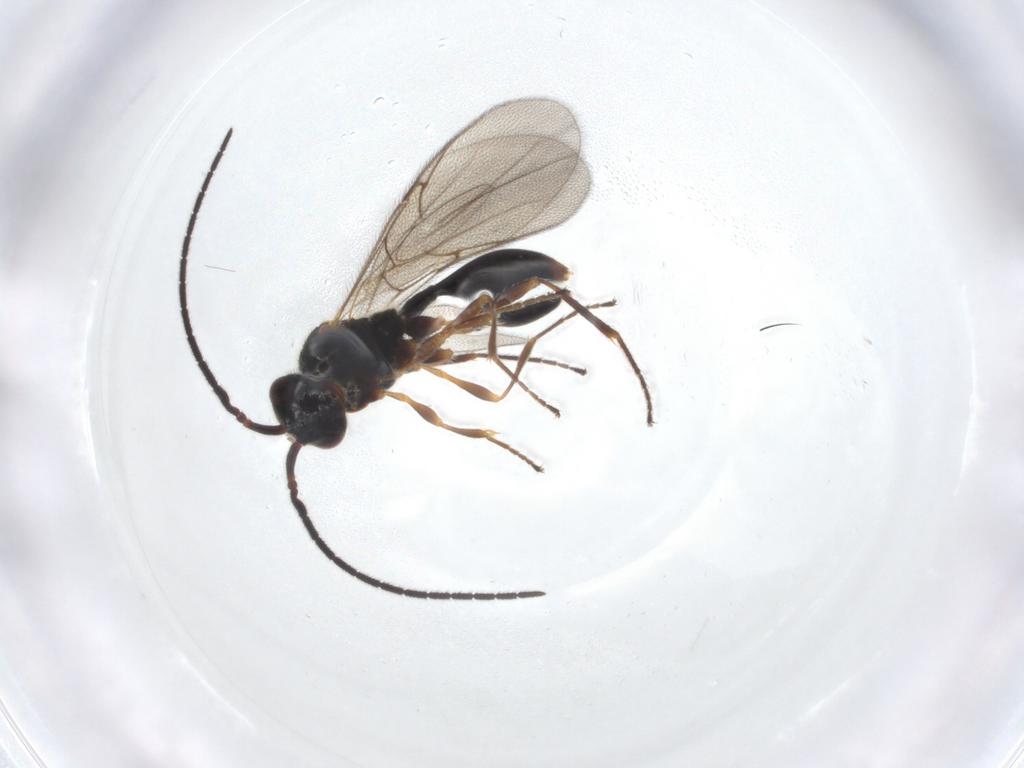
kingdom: Animalia
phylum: Arthropoda
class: Insecta
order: Hymenoptera
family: Diapriidae
